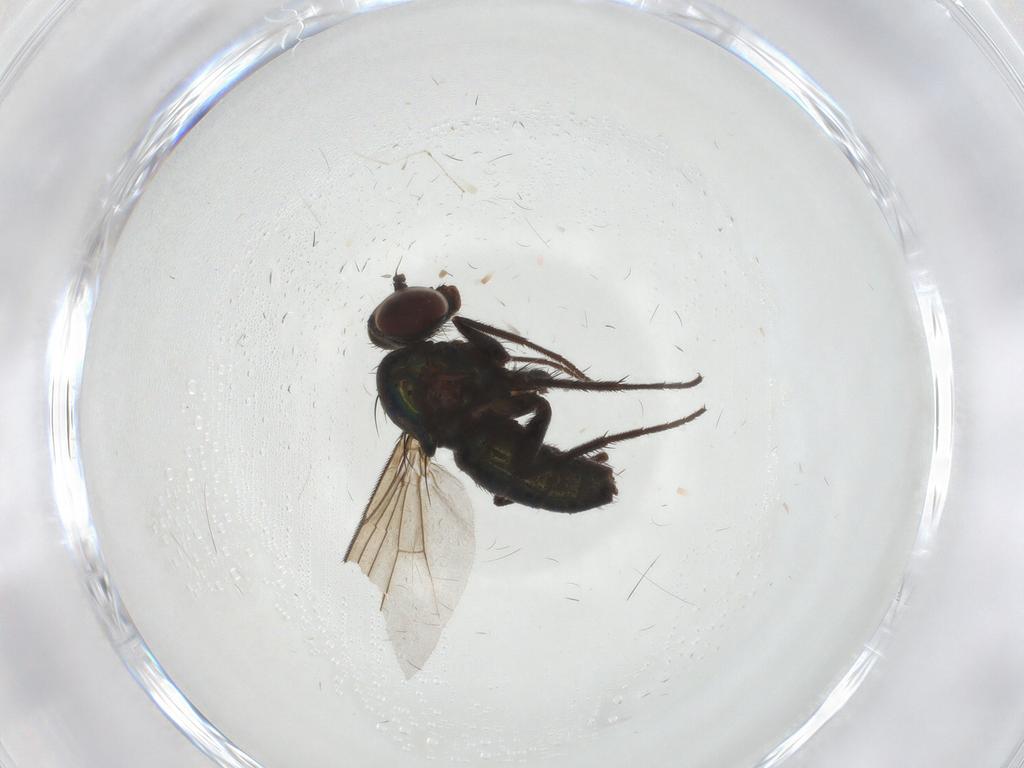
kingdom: Animalia
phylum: Arthropoda
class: Insecta
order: Diptera
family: Dolichopodidae
